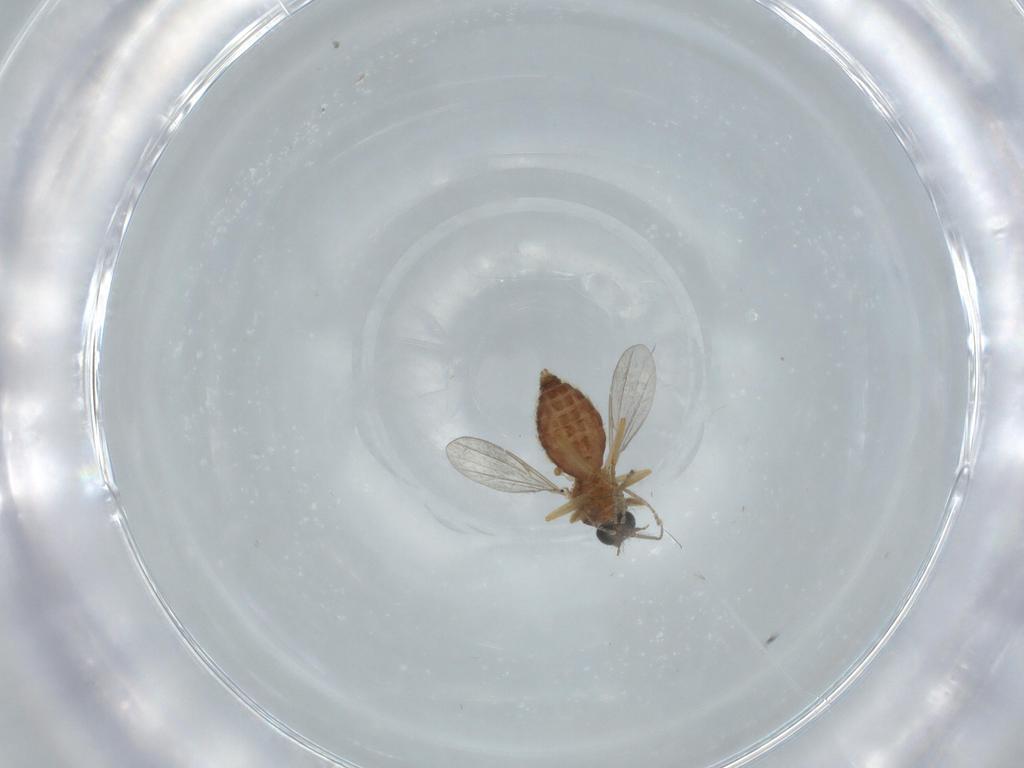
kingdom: Animalia
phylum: Arthropoda
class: Insecta
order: Diptera
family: Ceratopogonidae
